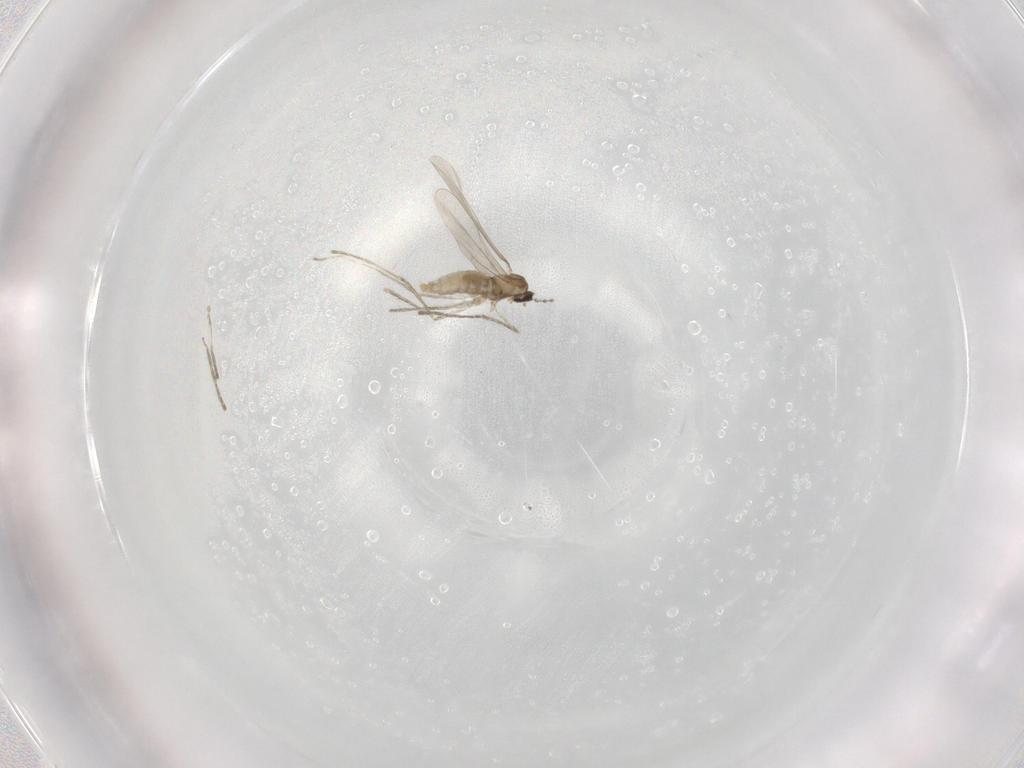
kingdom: Animalia
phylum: Arthropoda
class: Insecta
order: Diptera
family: Cecidomyiidae
